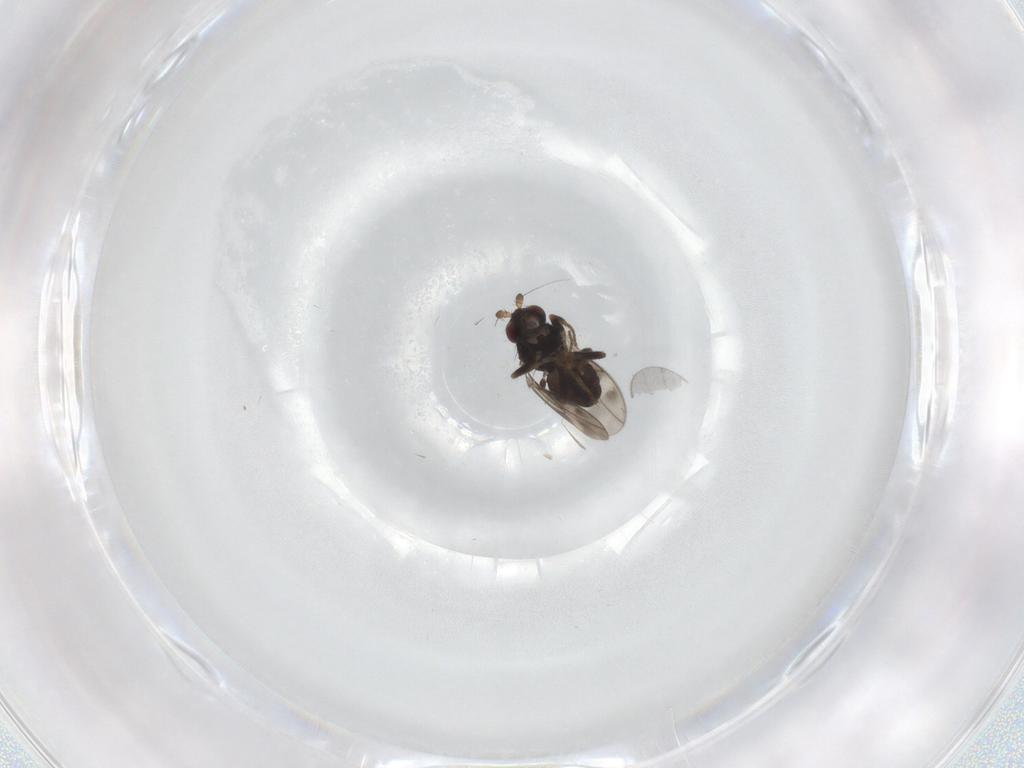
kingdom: Animalia
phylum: Arthropoda
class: Insecta
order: Diptera
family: Sphaeroceridae
